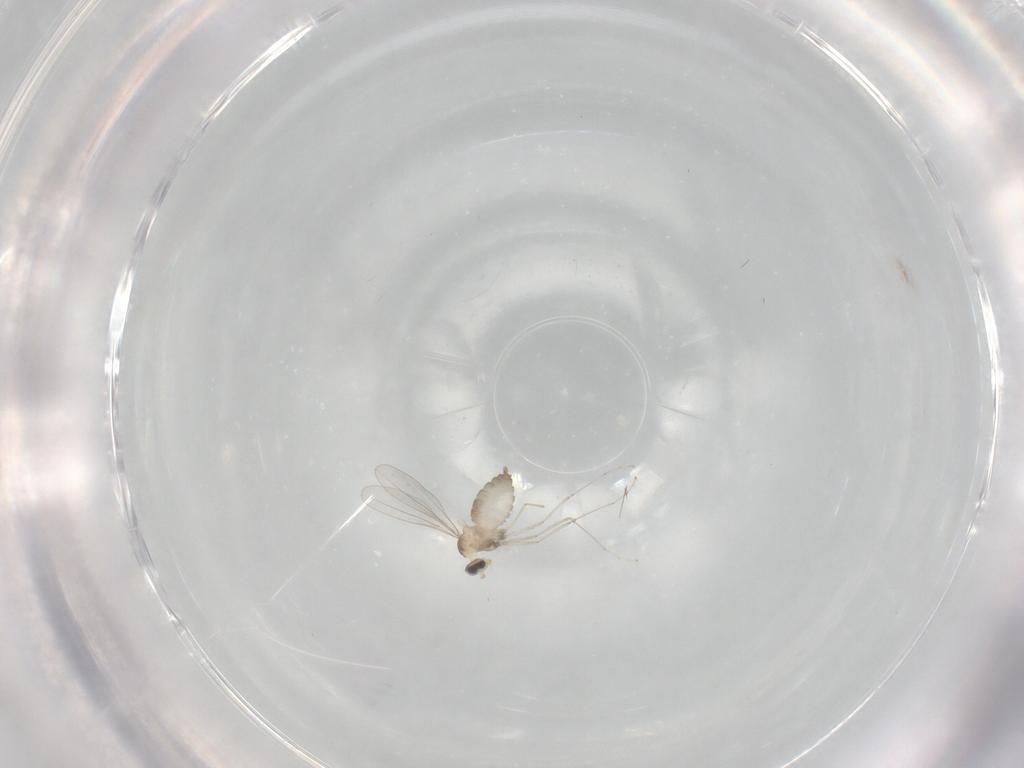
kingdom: Animalia
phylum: Arthropoda
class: Insecta
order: Diptera
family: Cecidomyiidae
